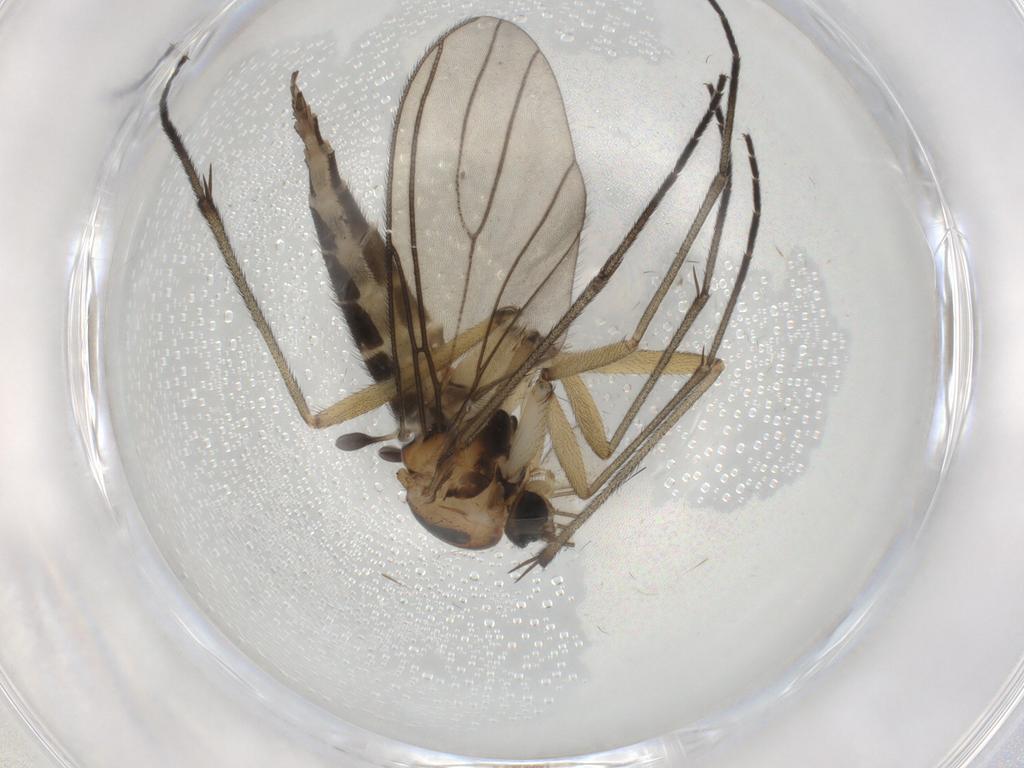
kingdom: Animalia
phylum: Arthropoda
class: Insecta
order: Diptera
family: Sciaridae
